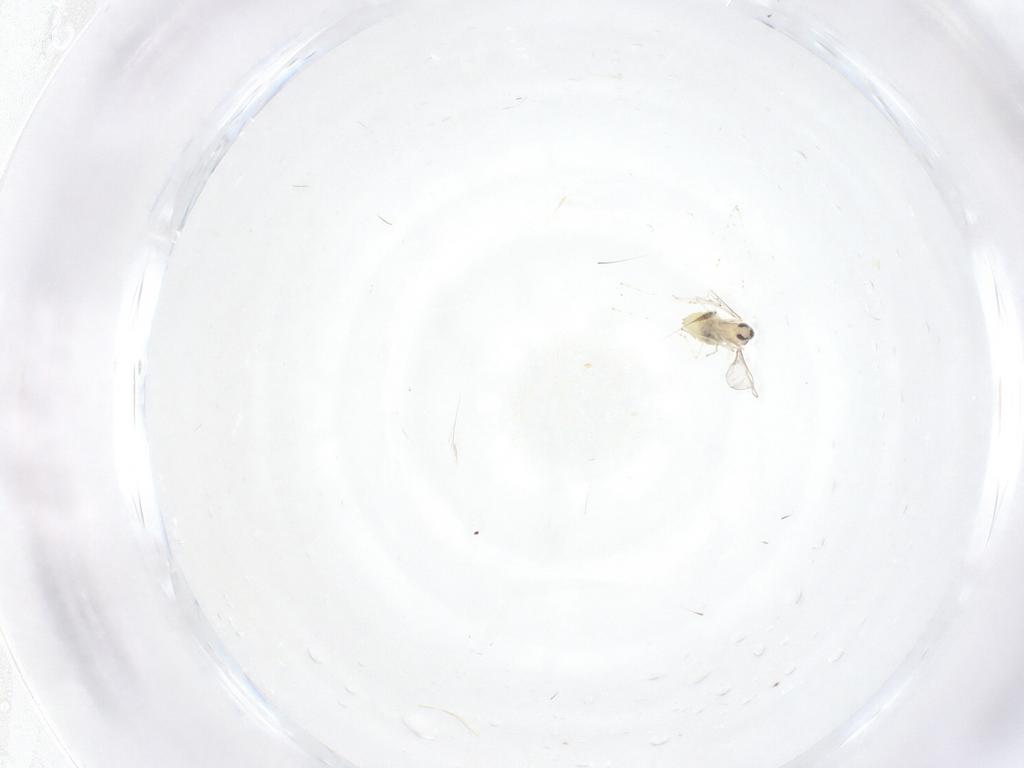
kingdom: Animalia
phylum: Arthropoda
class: Insecta
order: Diptera
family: Cecidomyiidae
